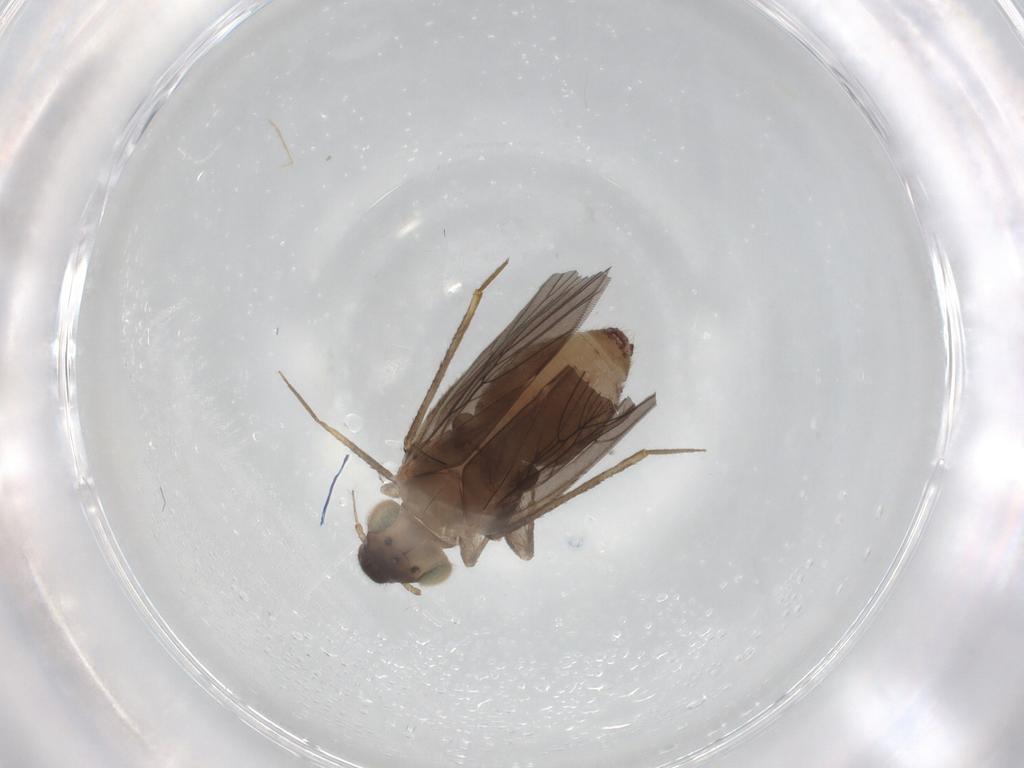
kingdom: Animalia
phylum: Arthropoda
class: Insecta
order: Psocodea
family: Lepidopsocidae
